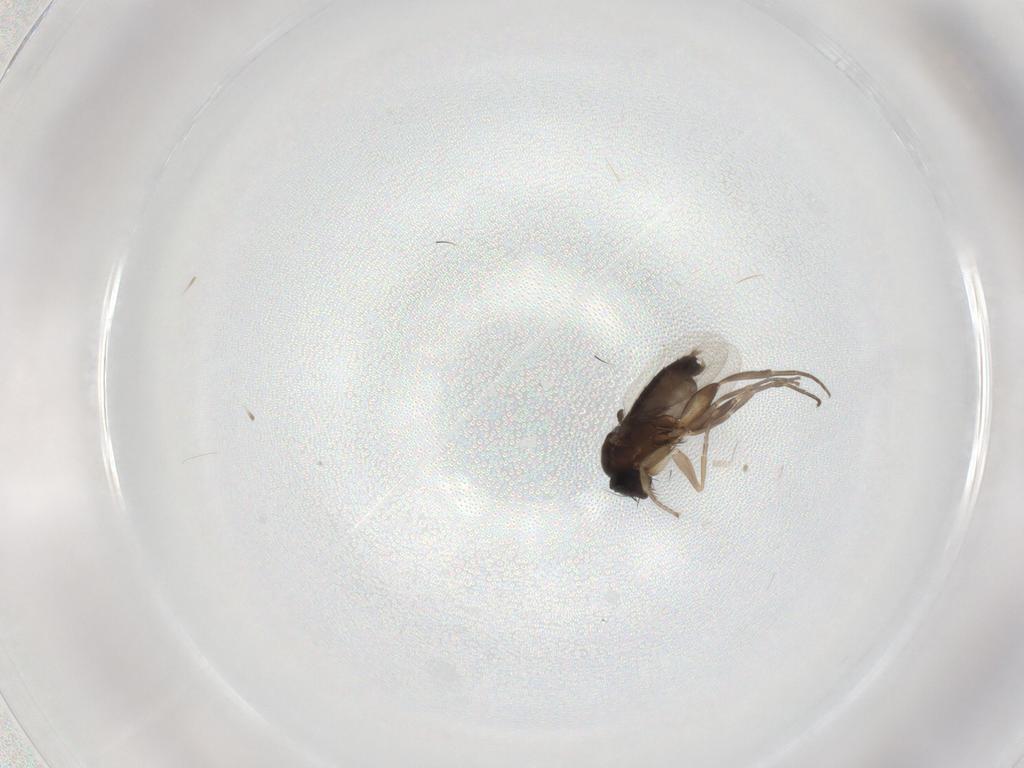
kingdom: Animalia
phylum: Arthropoda
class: Insecta
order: Diptera
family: Phoridae
